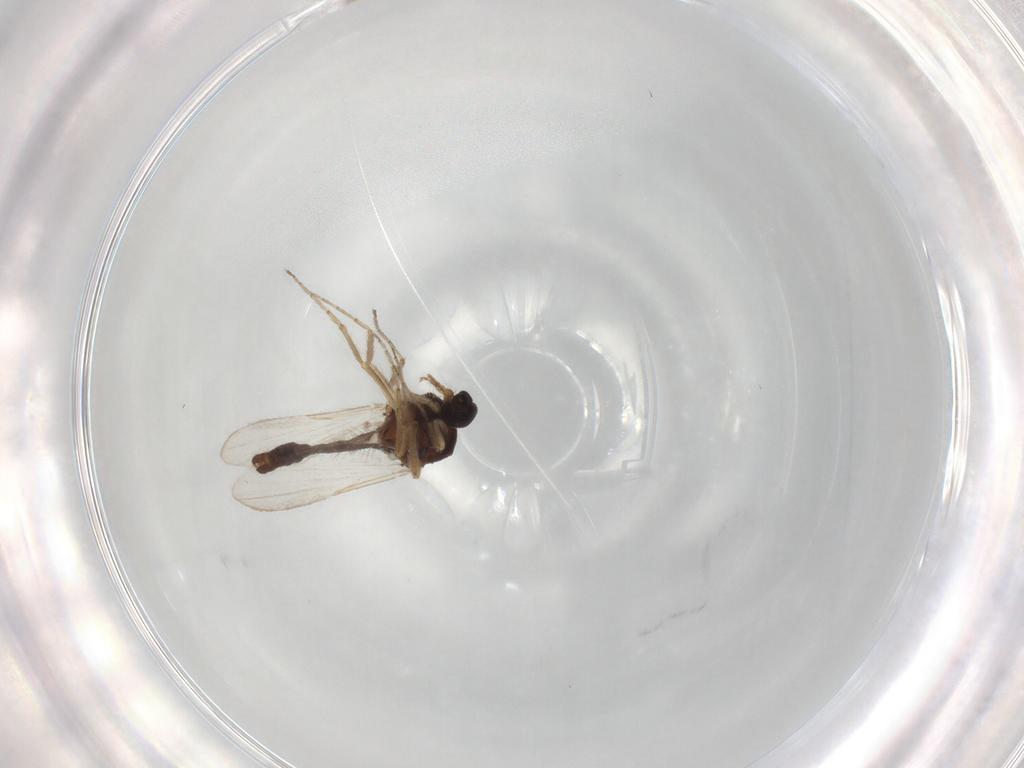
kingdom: Animalia
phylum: Arthropoda
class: Insecta
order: Diptera
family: Ceratopogonidae
